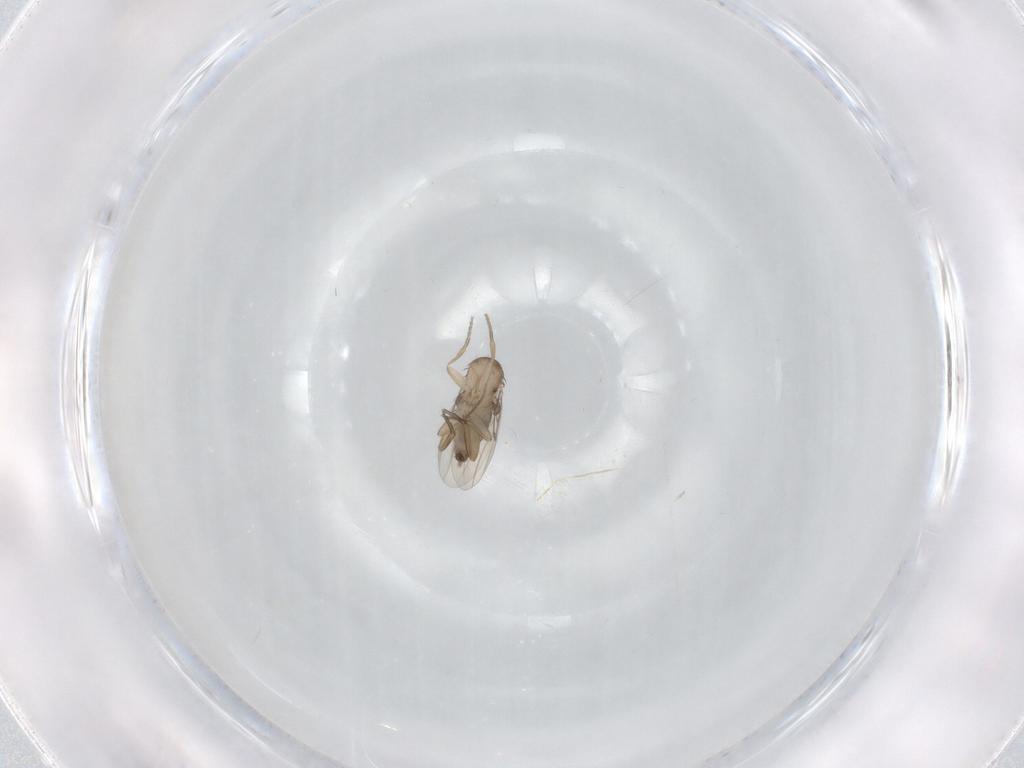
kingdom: Animalia
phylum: Arthropoda
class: Insecta
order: Diptera
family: Phoridae
